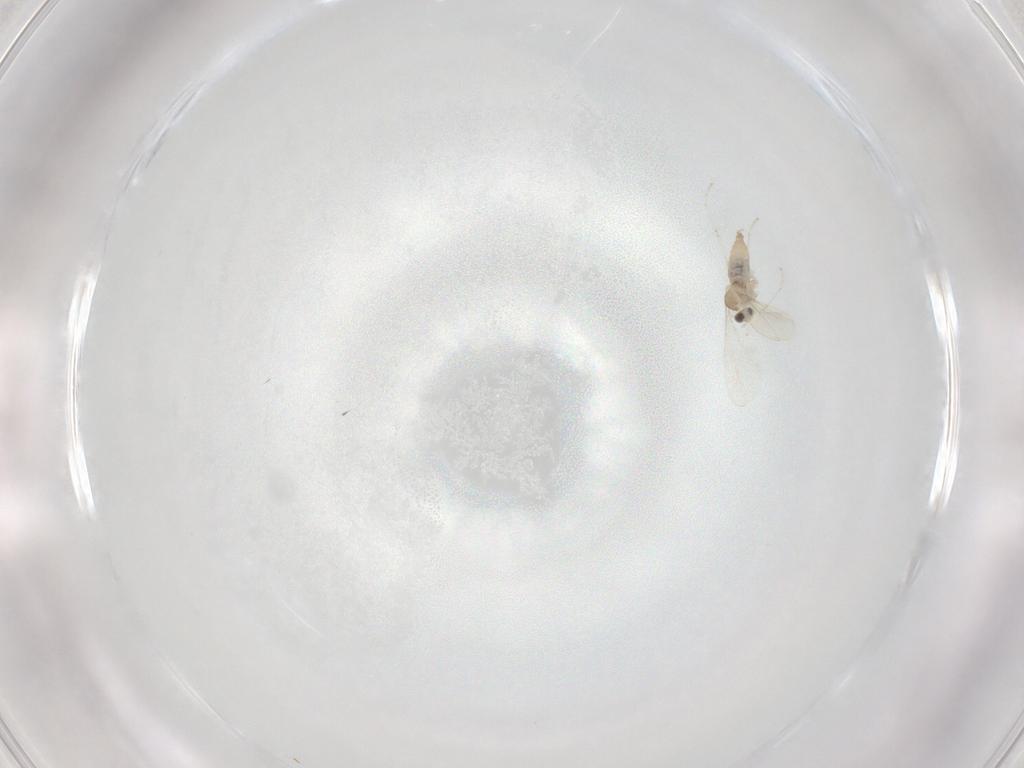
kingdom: Animalia
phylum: Arthropoda
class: Insecta
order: Diptera
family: Cecidomyiidae
